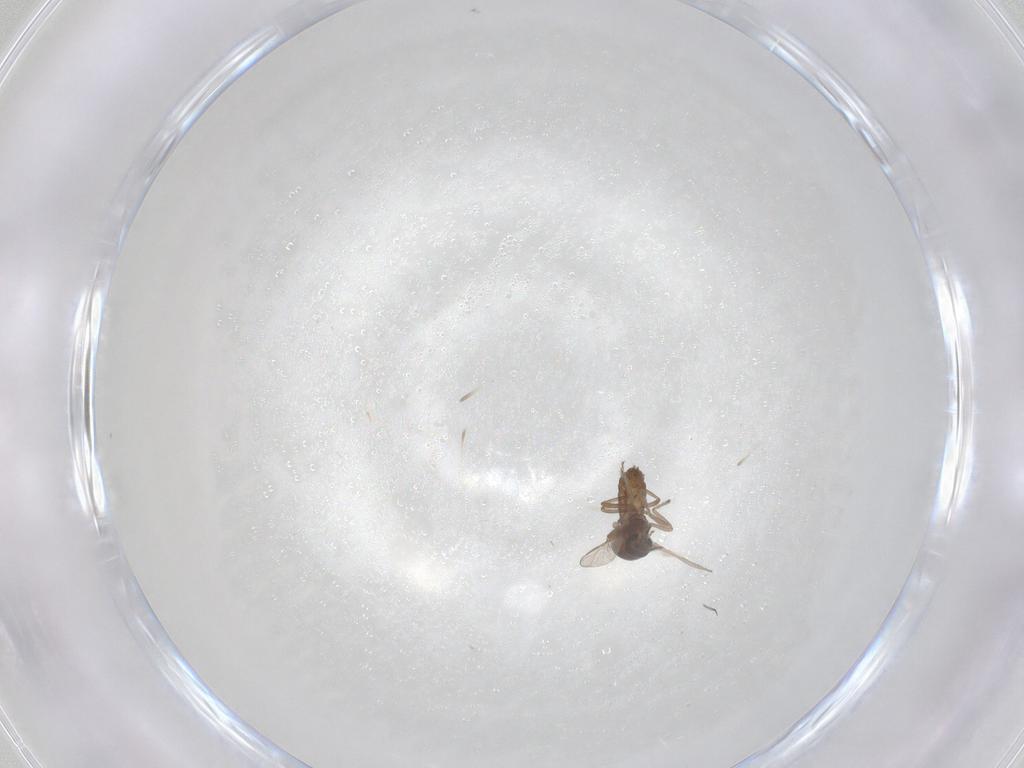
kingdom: Animalia
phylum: Arthropoda
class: Insecta
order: Diptera
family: Ceratopogonidae
